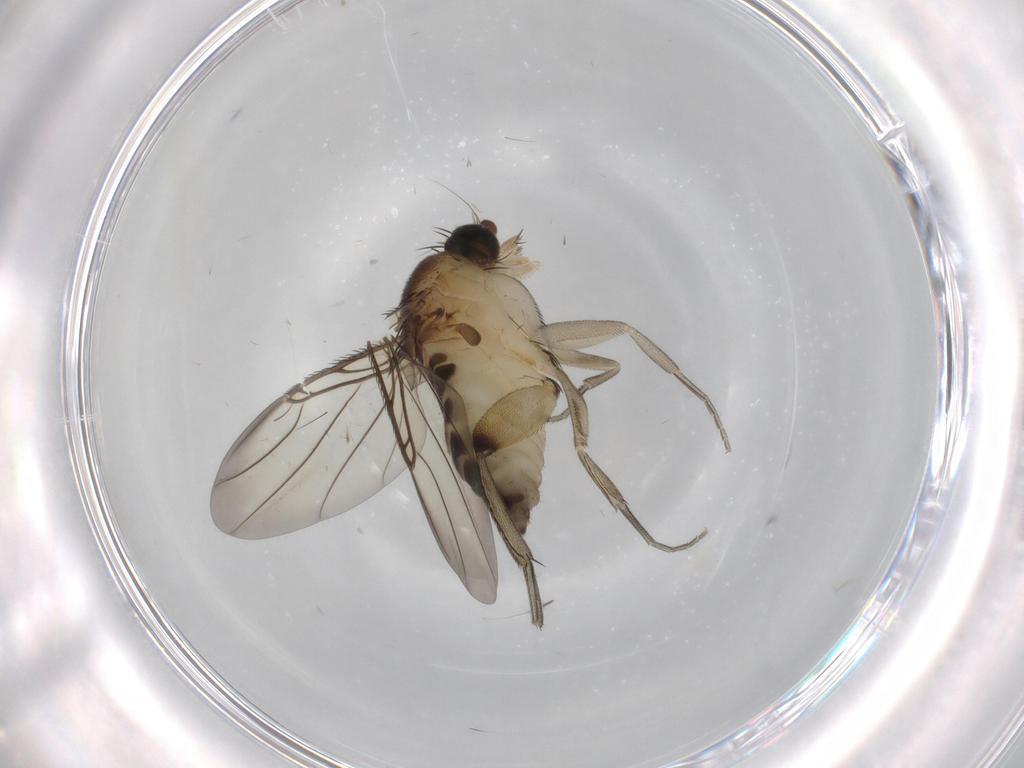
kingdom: Animalia
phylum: Arthropoda
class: Insecta
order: Diptera
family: Phoridae
